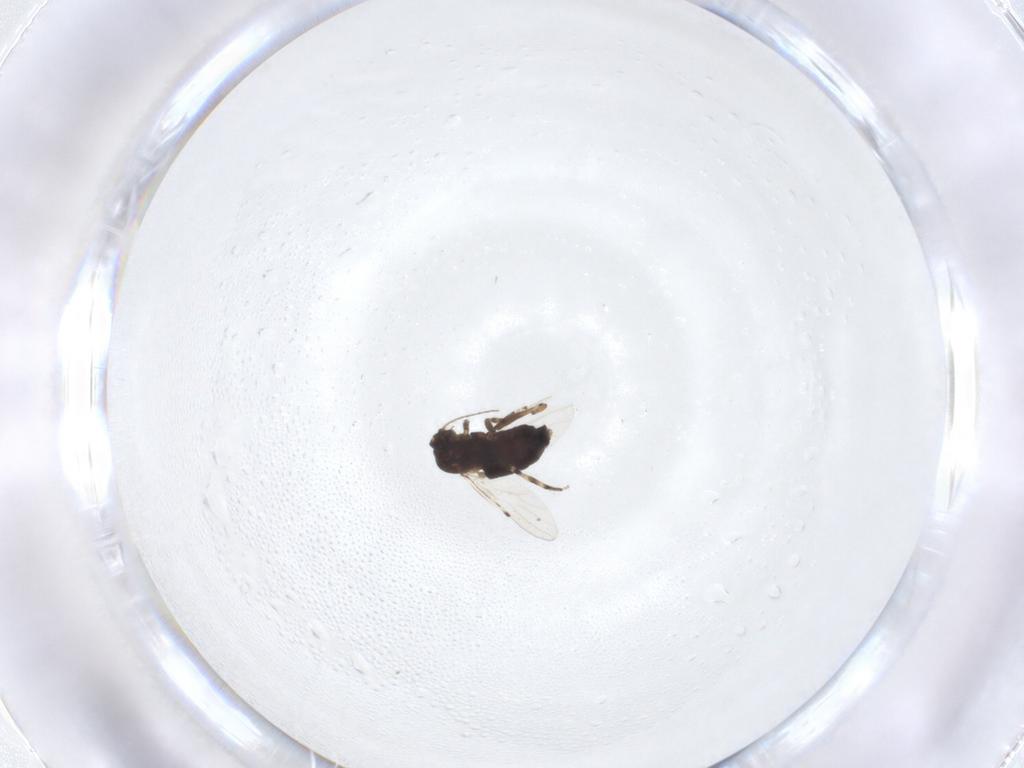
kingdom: Animalia
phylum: Arthropoda
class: Insecta
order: Diptera
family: Ceratopogonidae
